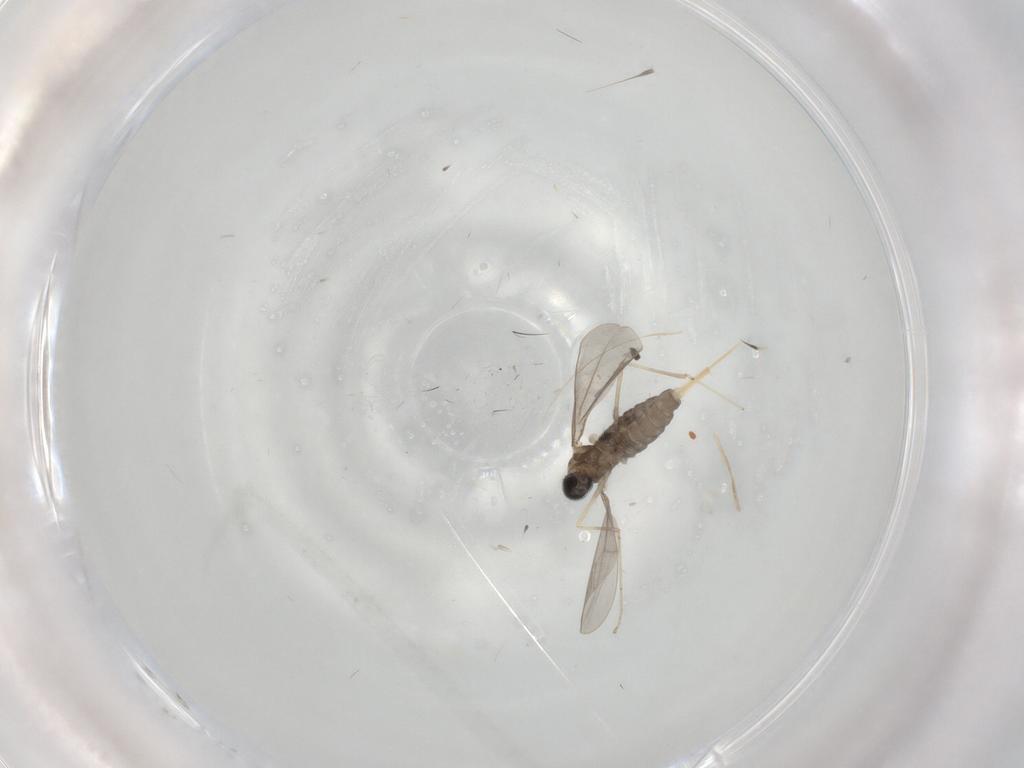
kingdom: Animalia
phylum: Arthropoda
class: Insecta
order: Diptera
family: Cecidomyiidae
